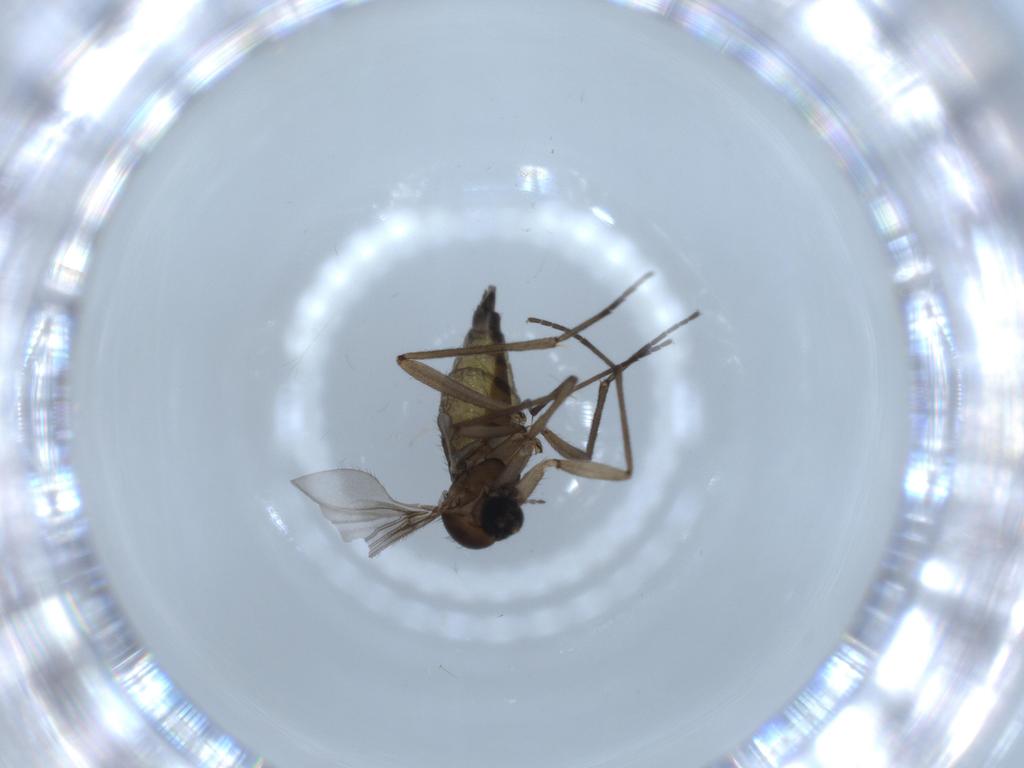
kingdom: Animalia
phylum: Arthropoda
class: Insecta
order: Diptera
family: Sciaridae
